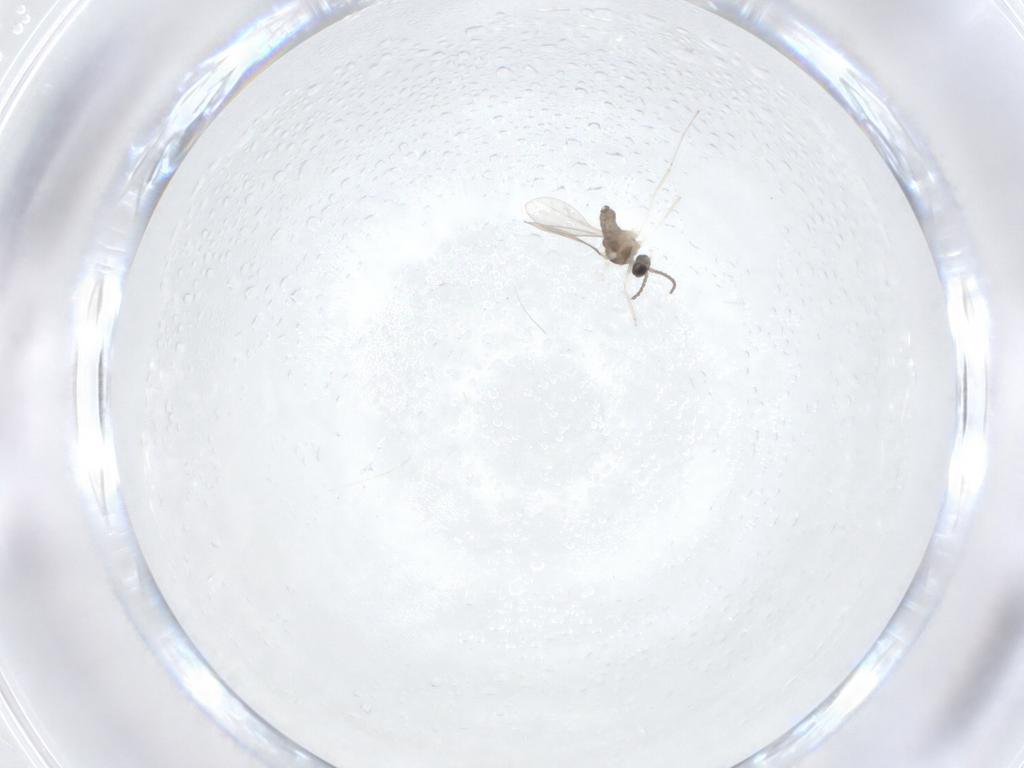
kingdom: Animalia
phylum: Arthropoda
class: Insecta
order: Diptera
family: Cecidomyiidae
